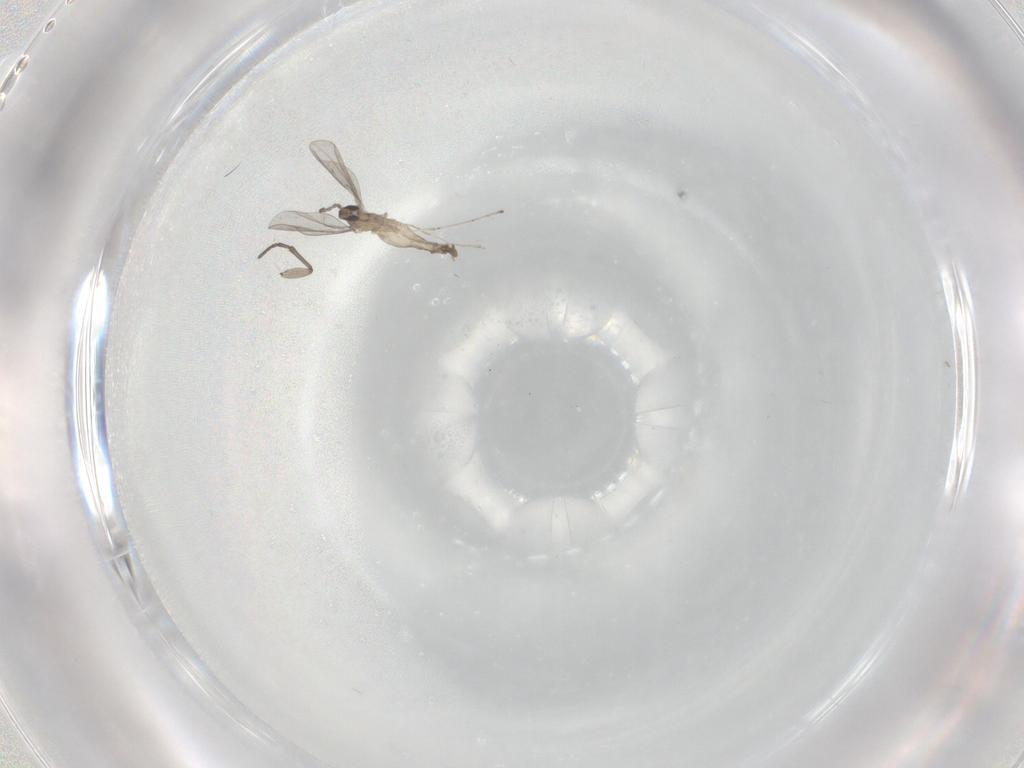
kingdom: Animalia
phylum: Arthropoda
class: Insecta
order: Diptera
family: Cecidomyiidae
